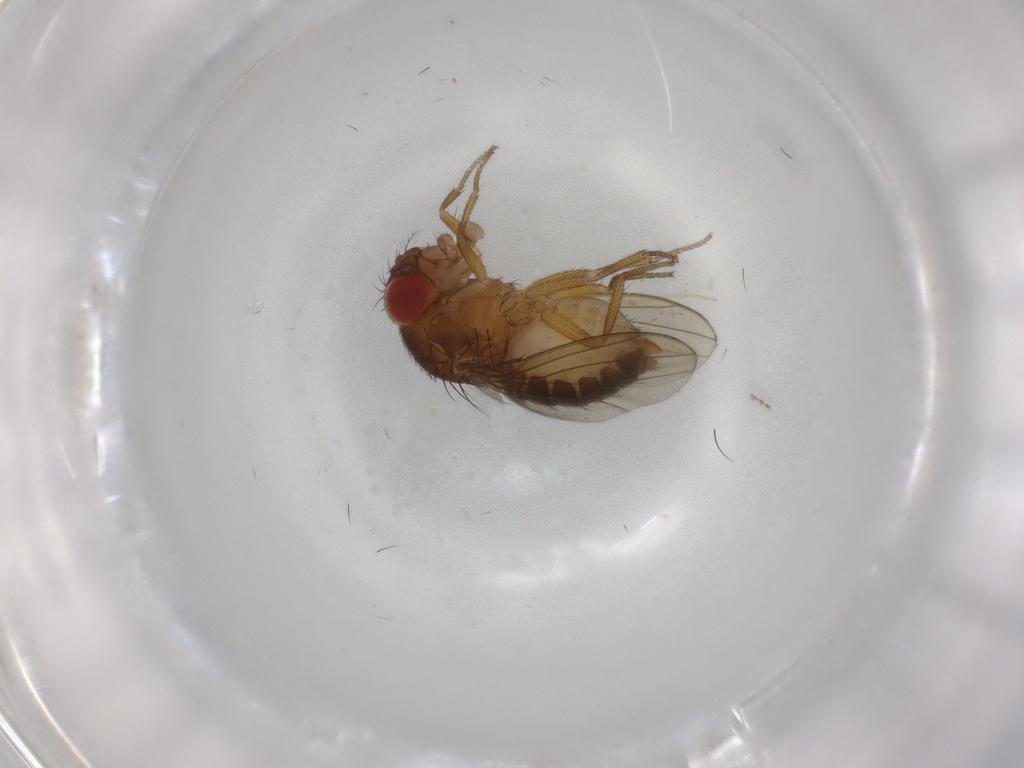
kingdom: Animalia
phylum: Arthropoda
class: Insecta
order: Diptera
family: Drosophilidae
